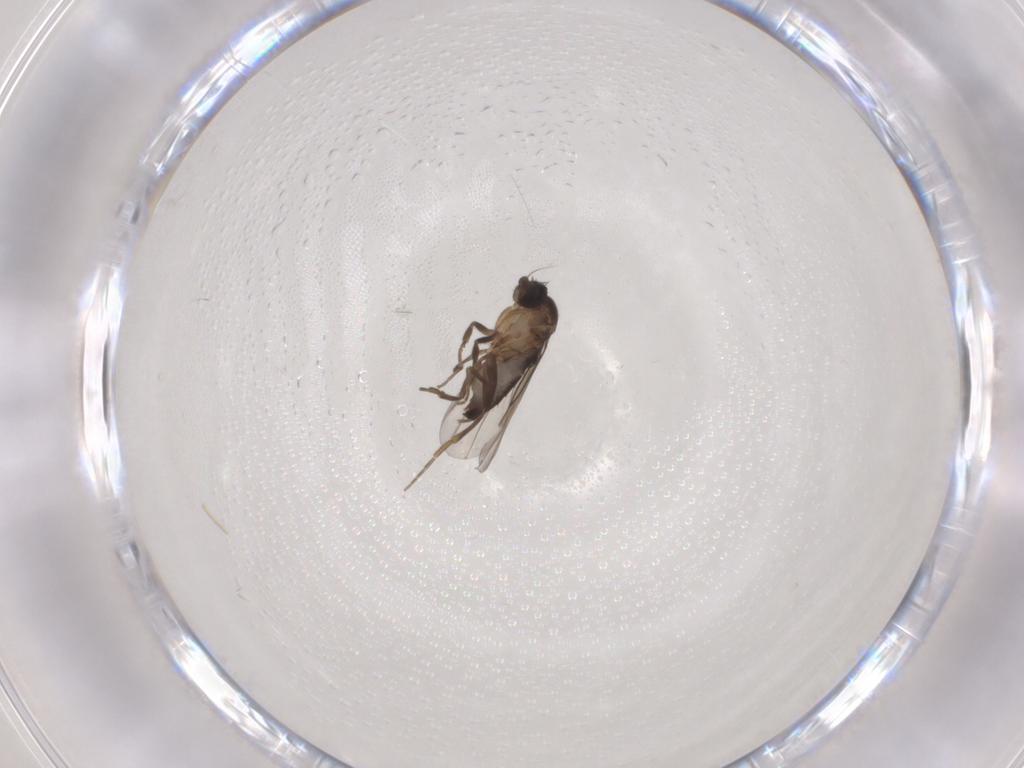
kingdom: Animalia
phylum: Arthropoda
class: Insecta
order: Diptera
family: Phoridae
